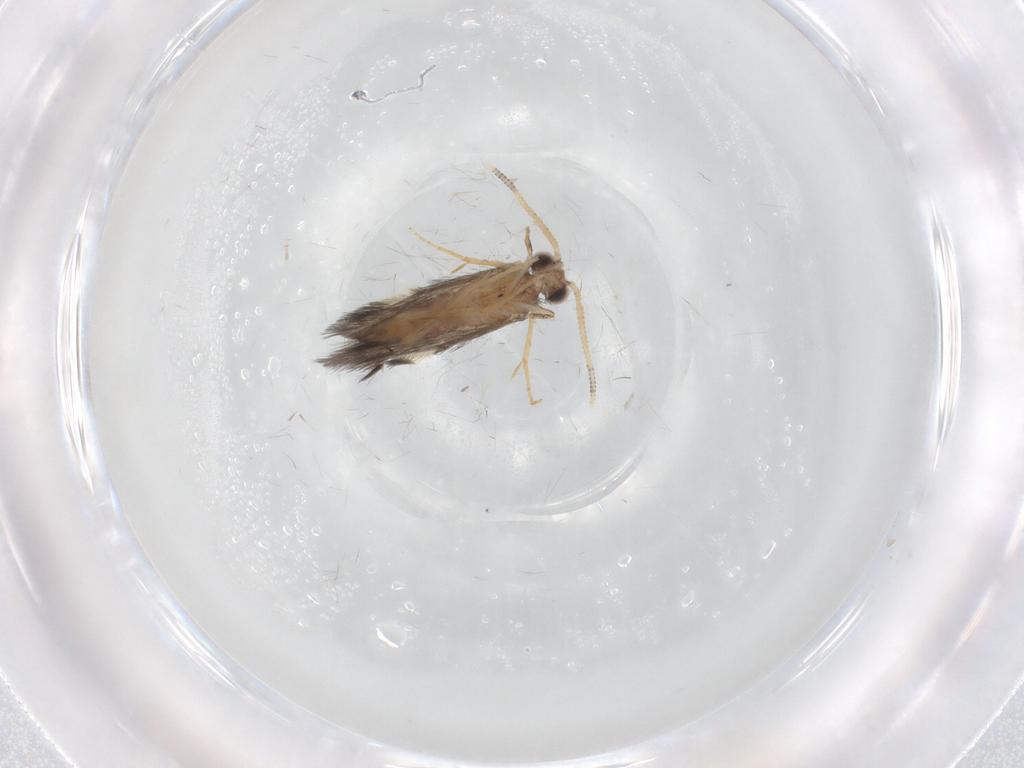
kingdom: Animalia
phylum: Arthropoda
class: Insecta
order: Trichoptera
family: Hydroptilidae
